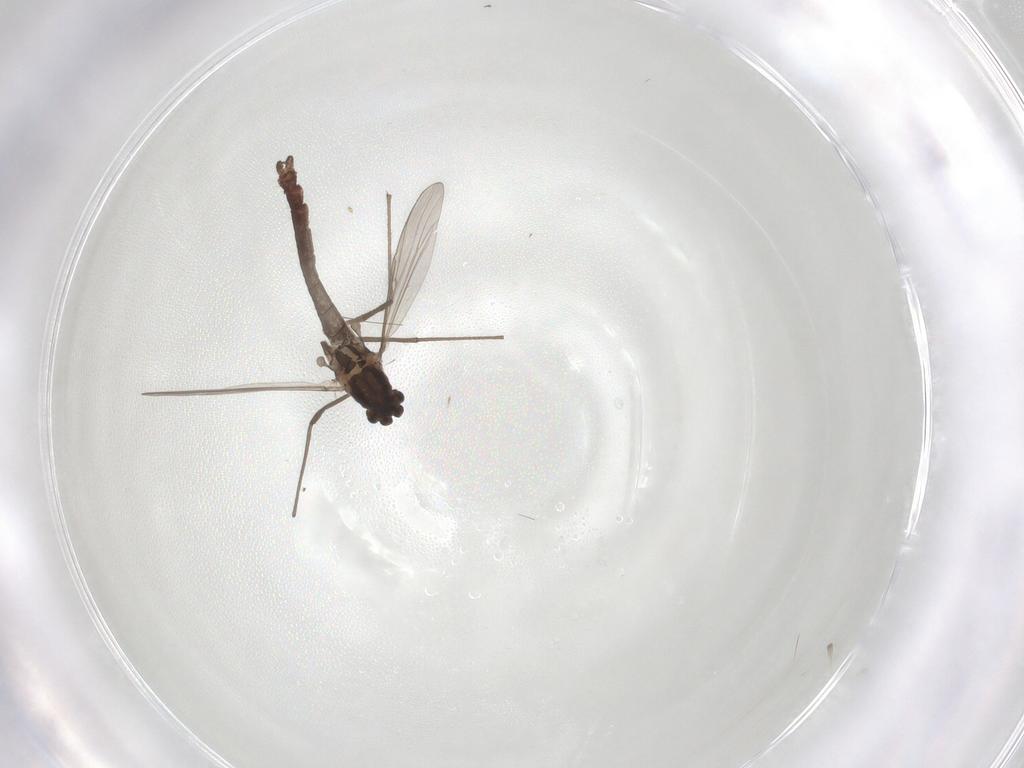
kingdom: Animalia
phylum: Arthropoda
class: Insecta
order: Diptera
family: Chironomidae
